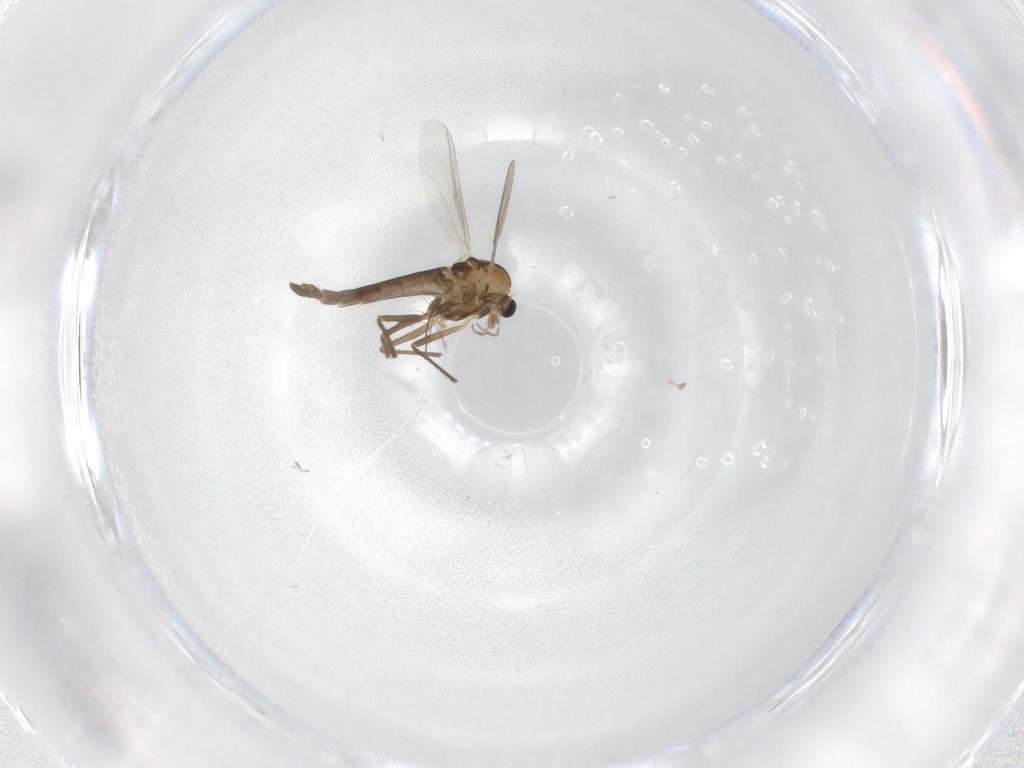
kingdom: Animalia
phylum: Arthropoda
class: Insecta
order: Diptera
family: Chironomidae
